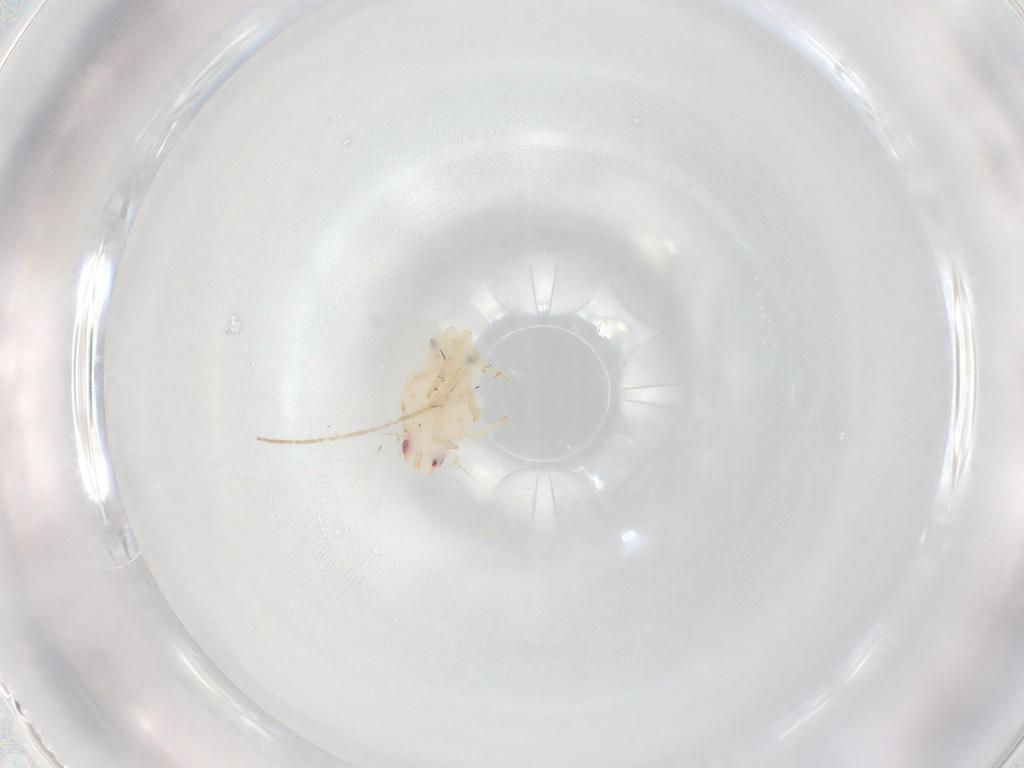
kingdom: Animalia
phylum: Arthropoda
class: Insecta
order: Hemiptera
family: Flatidae
